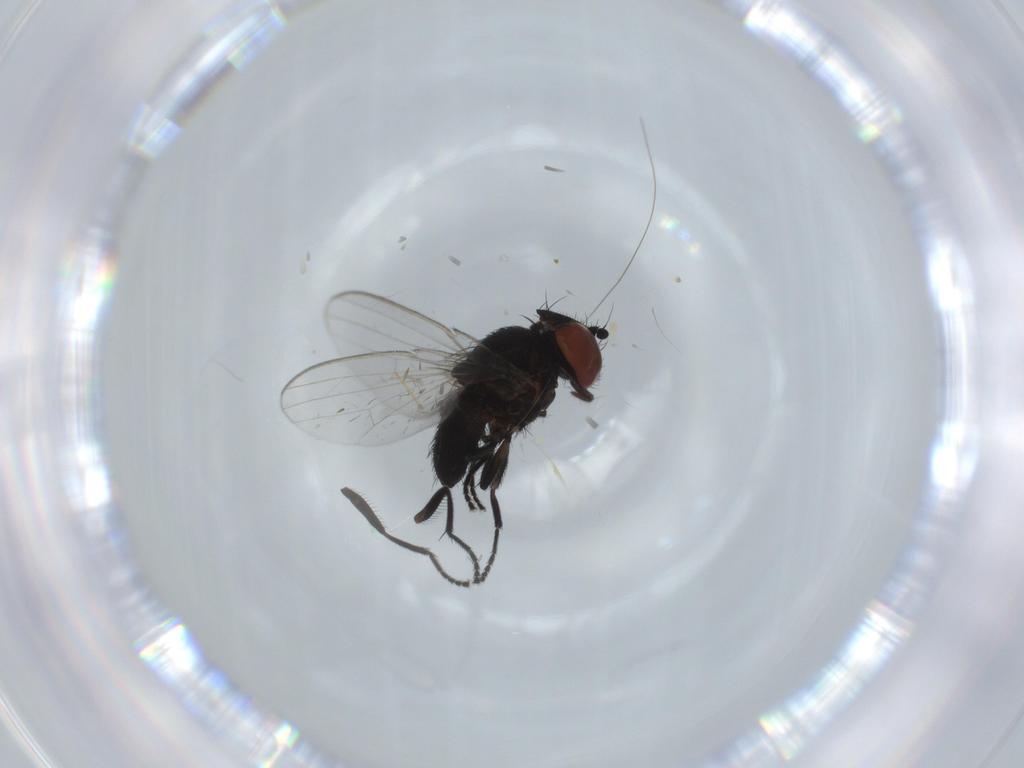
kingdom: Animalia
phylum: Arthropoda
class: Insecta
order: Diptera
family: Milichiidae
